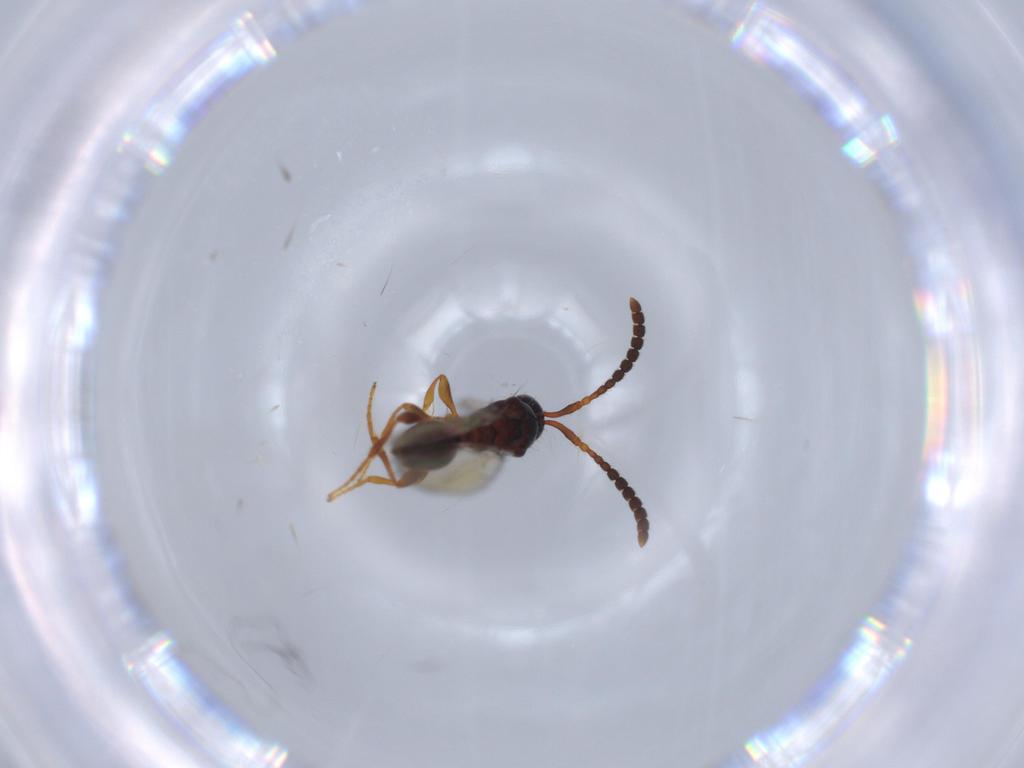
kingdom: Animalia
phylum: Arthropoda
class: Insecta
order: Hymenoptera
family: Diapriidae
